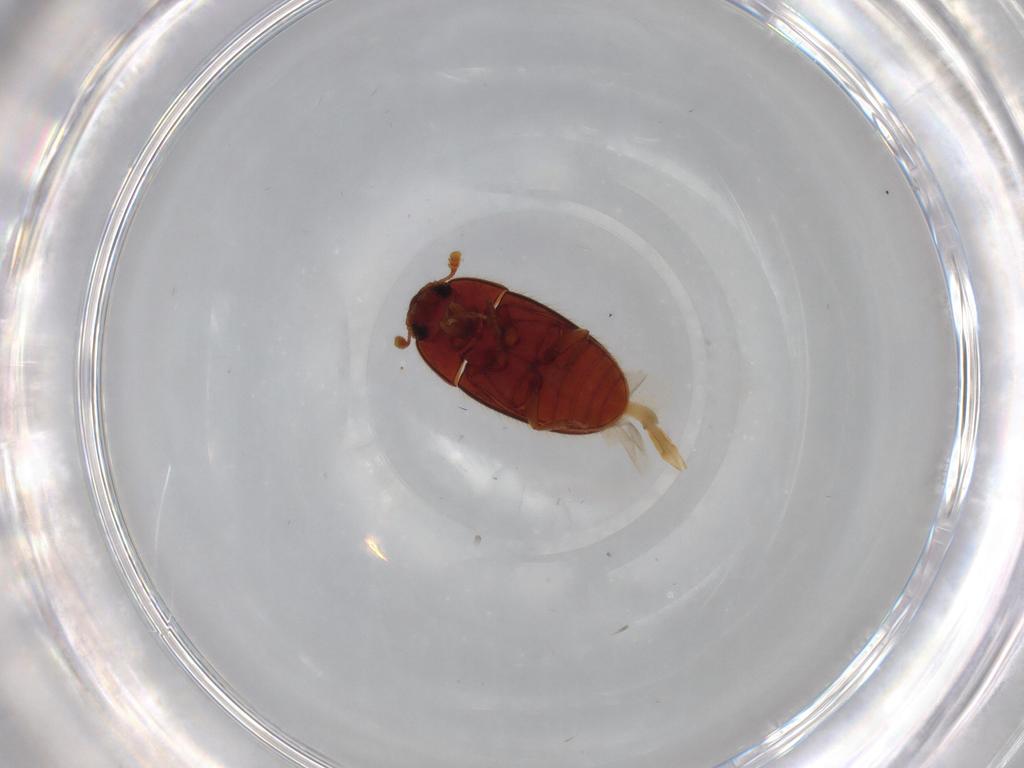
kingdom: Animalia
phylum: Arthropoda
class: Insecta
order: Coleoptera
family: Biphyllidae
